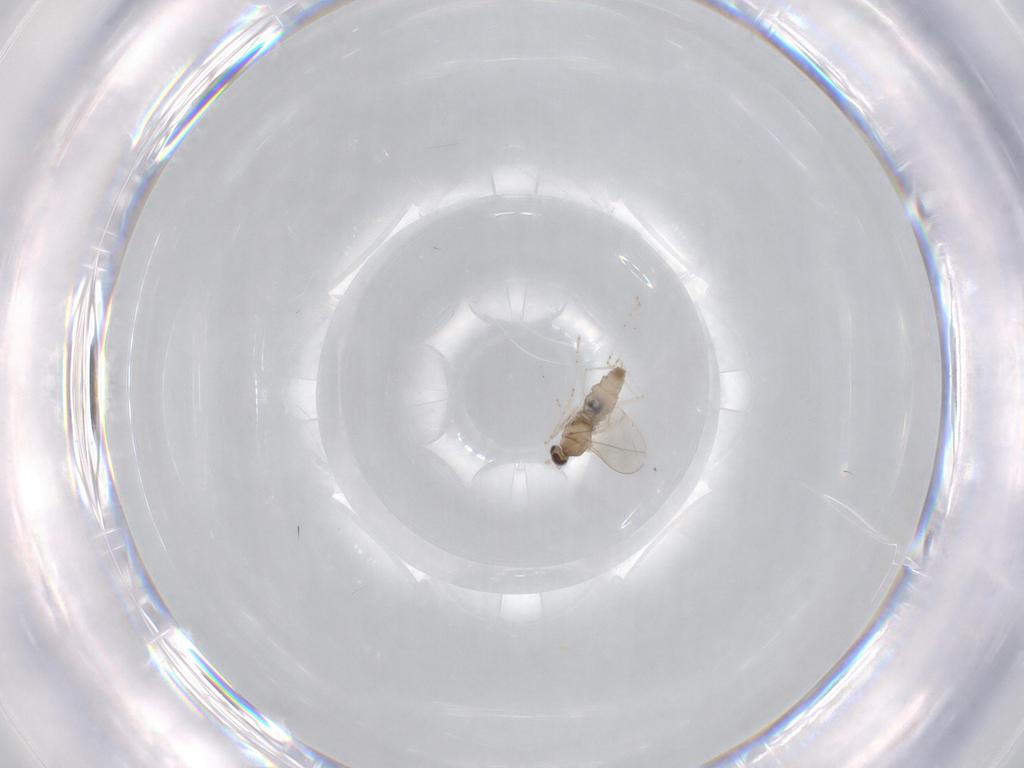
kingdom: Animalia
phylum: Arthropoda
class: Insecta
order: Diptera
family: Cecidomyiidae
